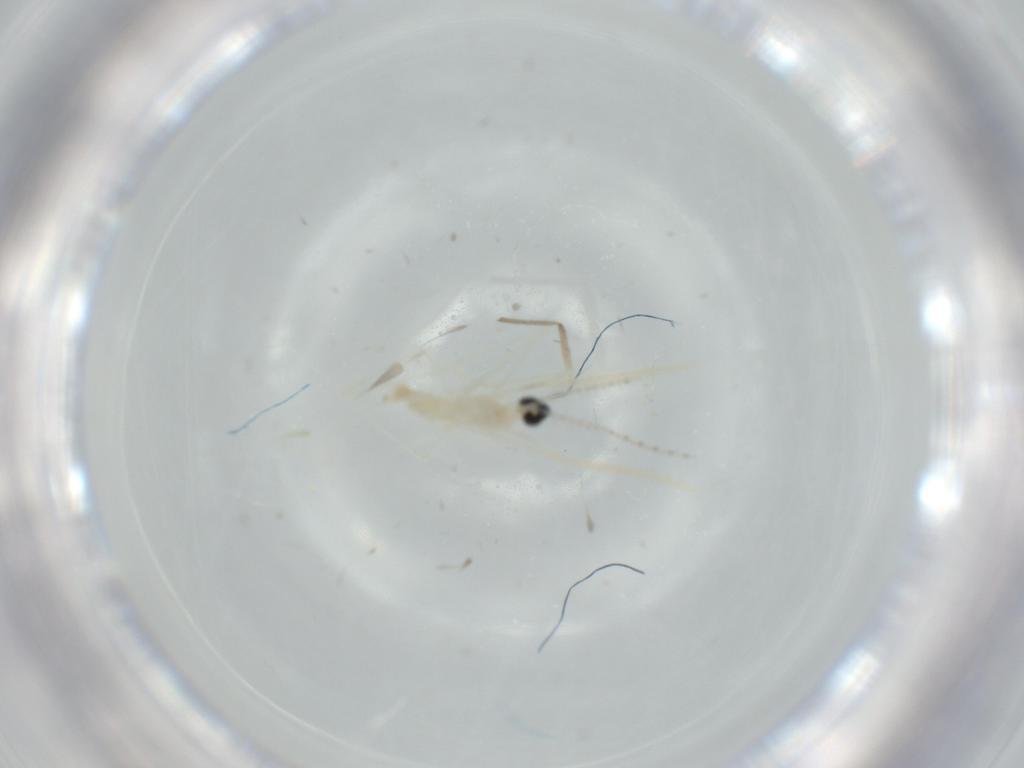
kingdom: Animalia
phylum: Arthropoda
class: Insecta
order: Diptera
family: Cecidomyiidae
